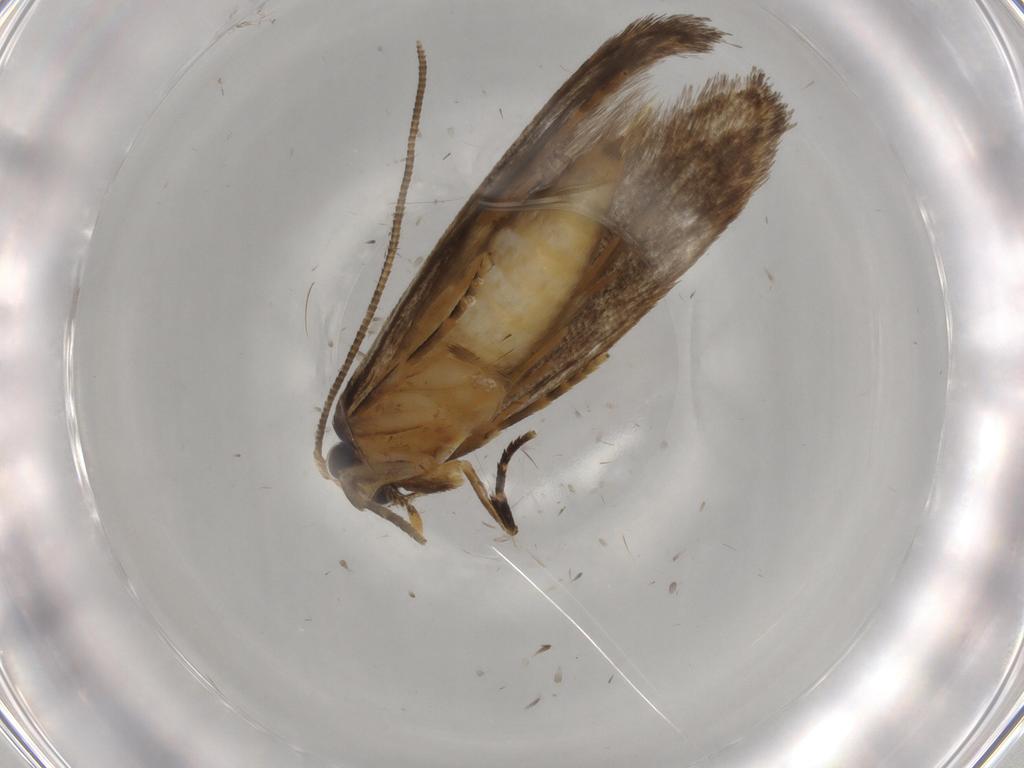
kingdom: Animalia
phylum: Arthropoda
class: Insecta
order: Lepidoptera
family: Tineidae
